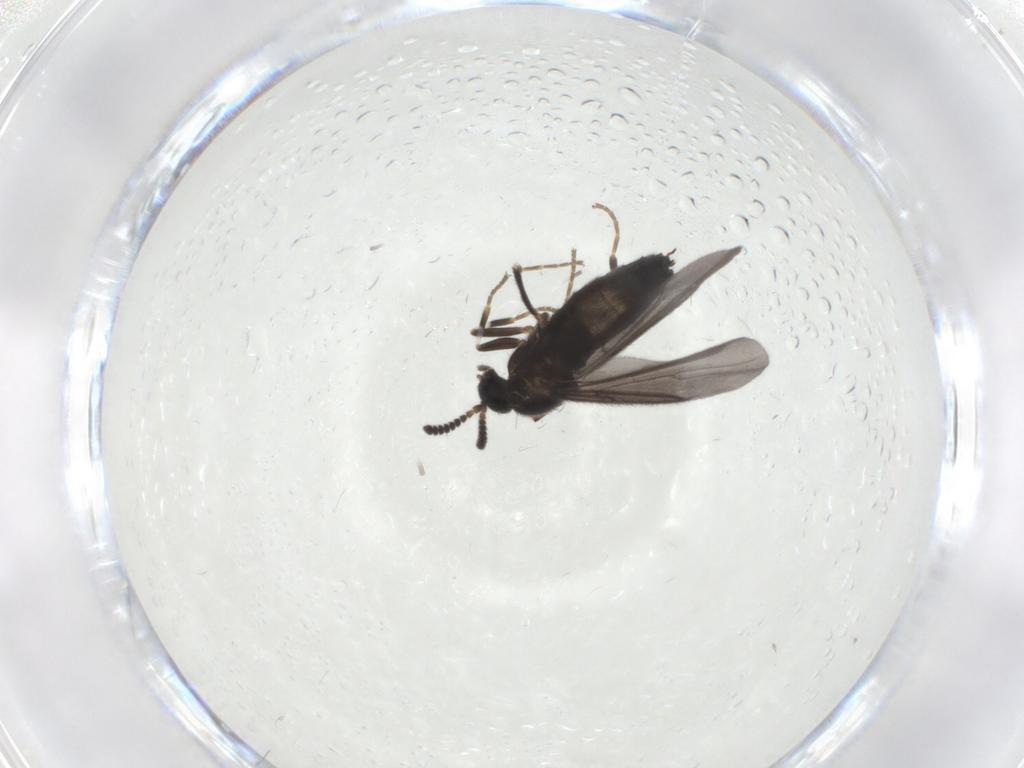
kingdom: Animalia
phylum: Arthropoda
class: Insecta
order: Diptera
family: Scatopsidae
